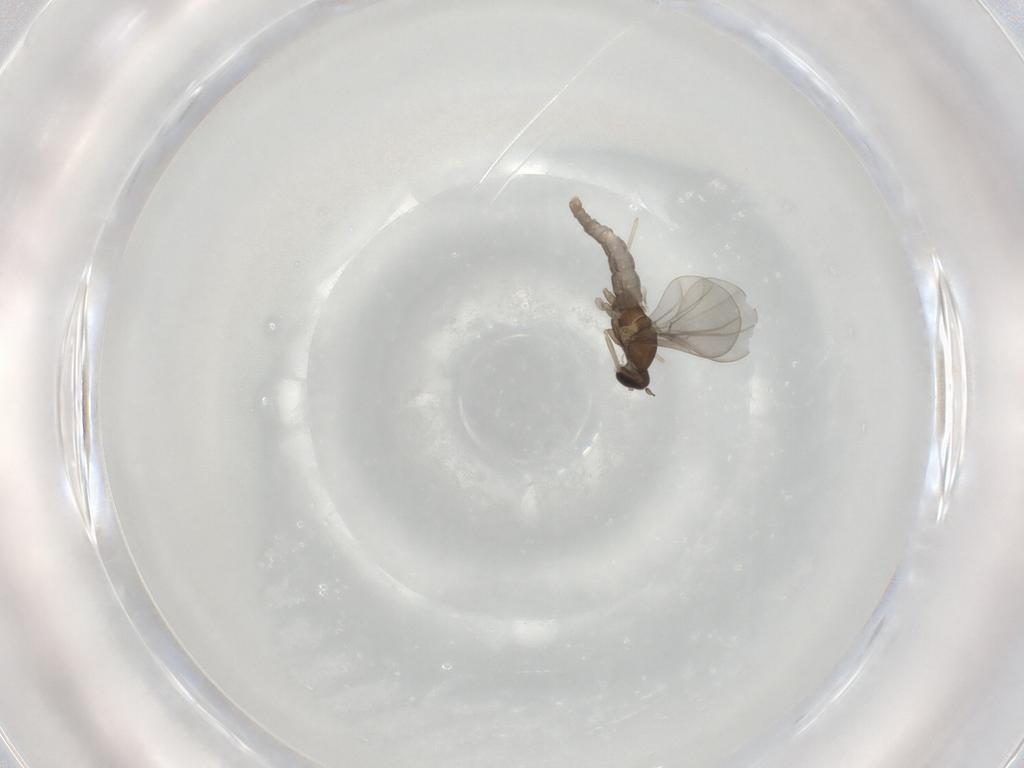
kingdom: Animalia
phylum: Arthropoda
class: Insecta
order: Diptera
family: Cecidomyiidae
